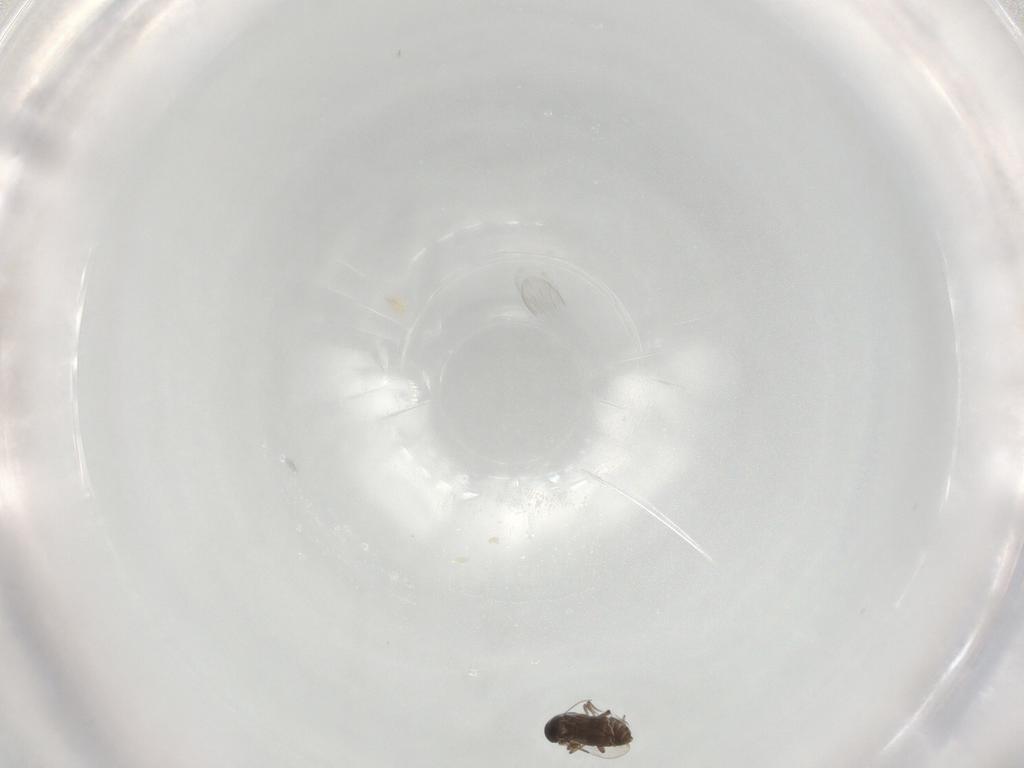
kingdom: Animalia
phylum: Arthropoda
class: Insecta
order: Diptera
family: Ceratopogonidae
